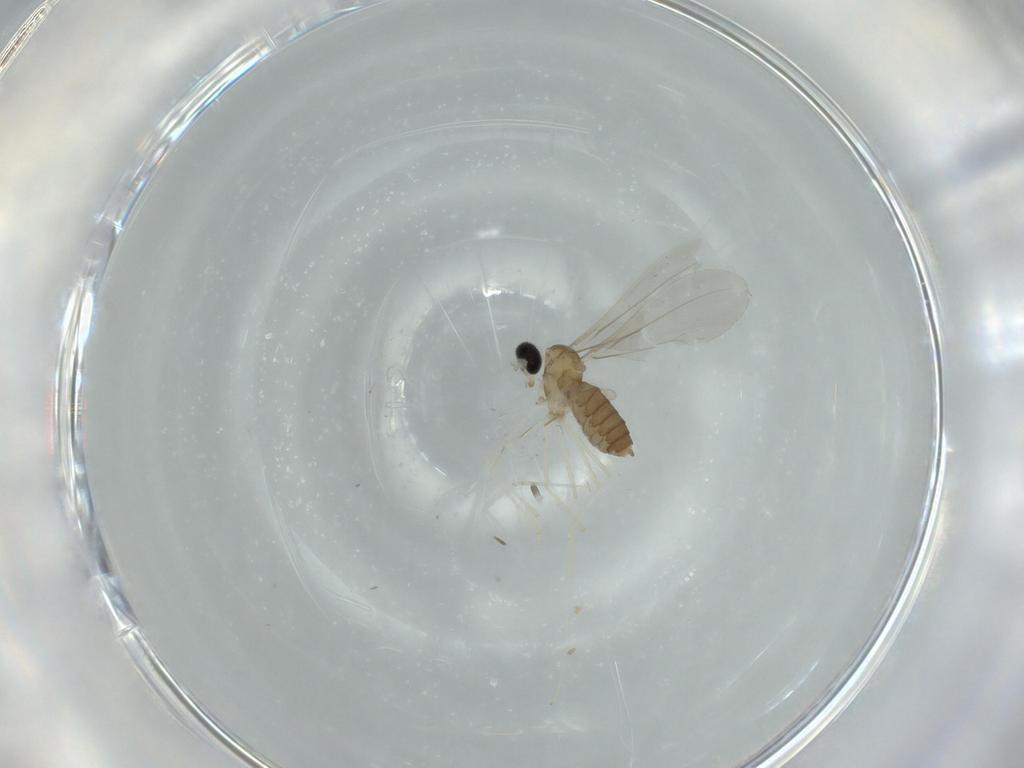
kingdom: Animalia
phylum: Arthropoda
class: Insecta
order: Diptera
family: Cecidomyiidae
